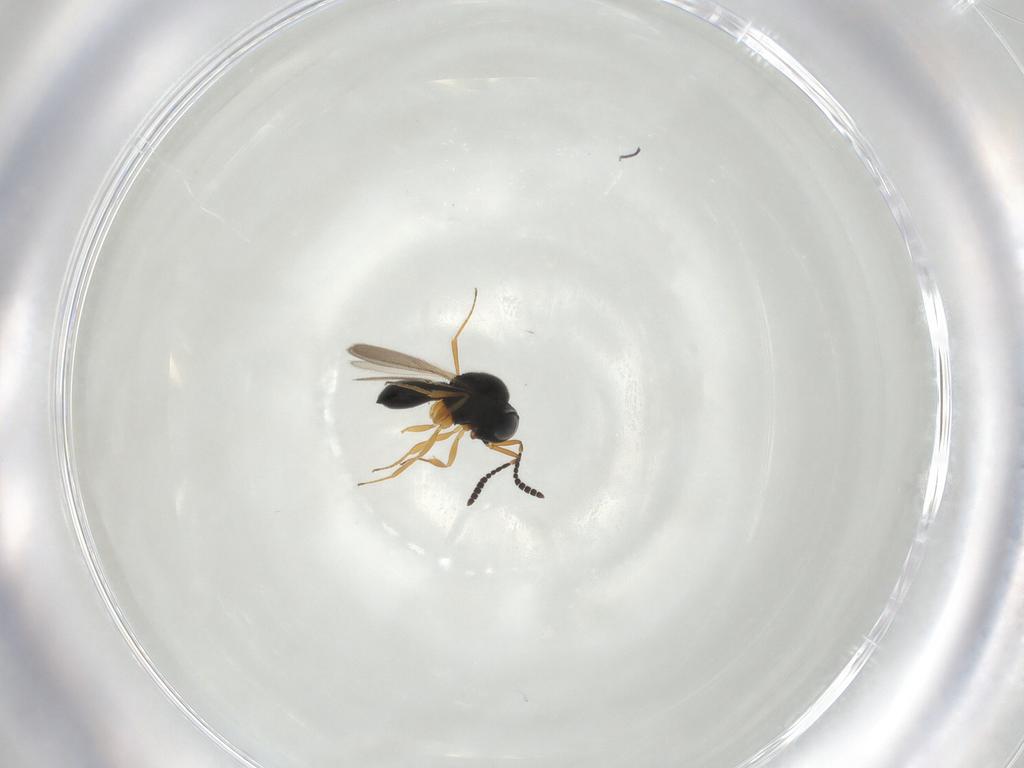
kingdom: Animalia
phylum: Arthropoda
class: Insecta
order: Hymenoptera
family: Scelionidae
